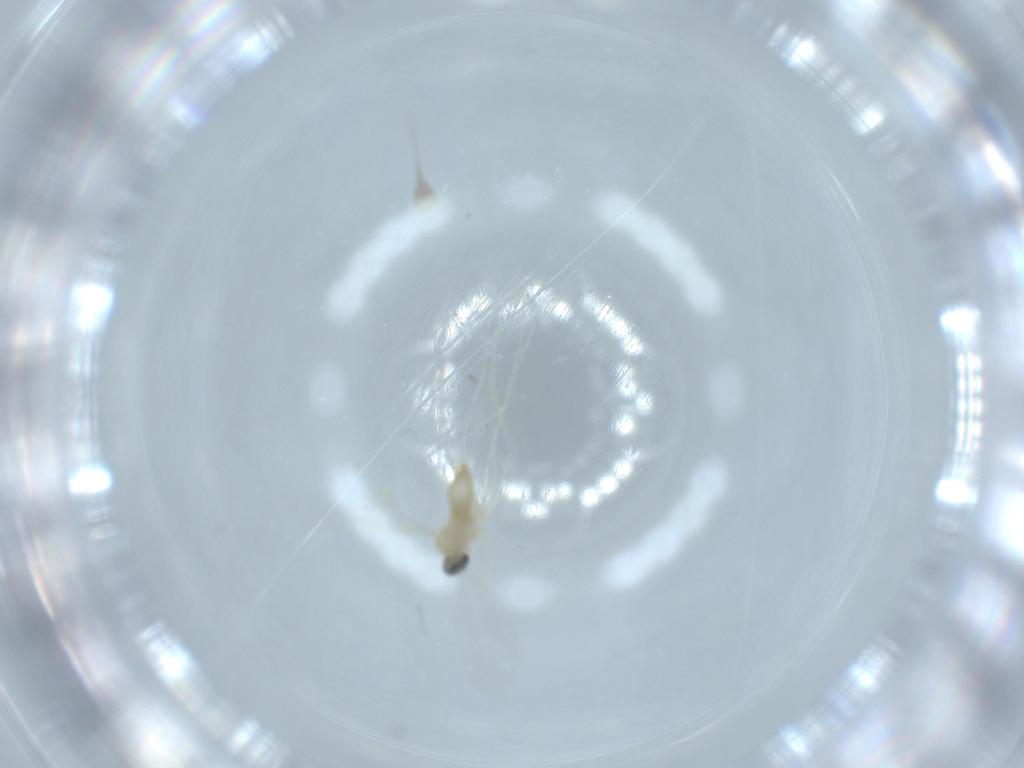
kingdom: Animalia
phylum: Arthropoda
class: Insecta
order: Diptera
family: Cecidomyiidae
